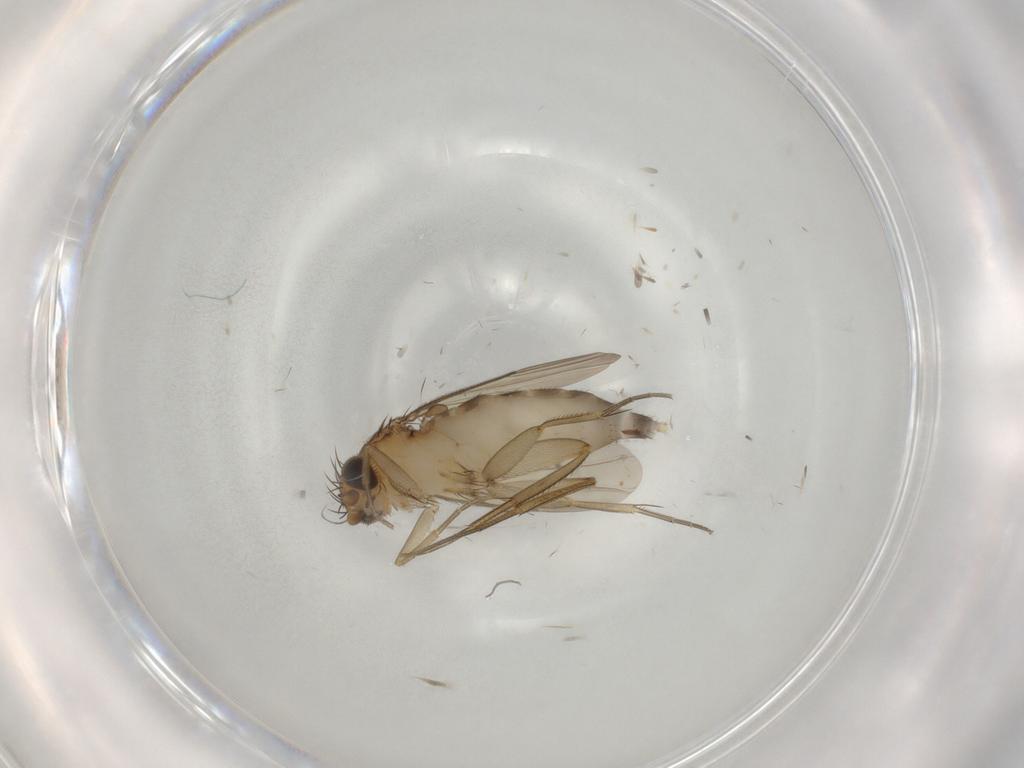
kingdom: Animalia
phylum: Arthropoda
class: Insecta
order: Diptera
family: Phoridae
